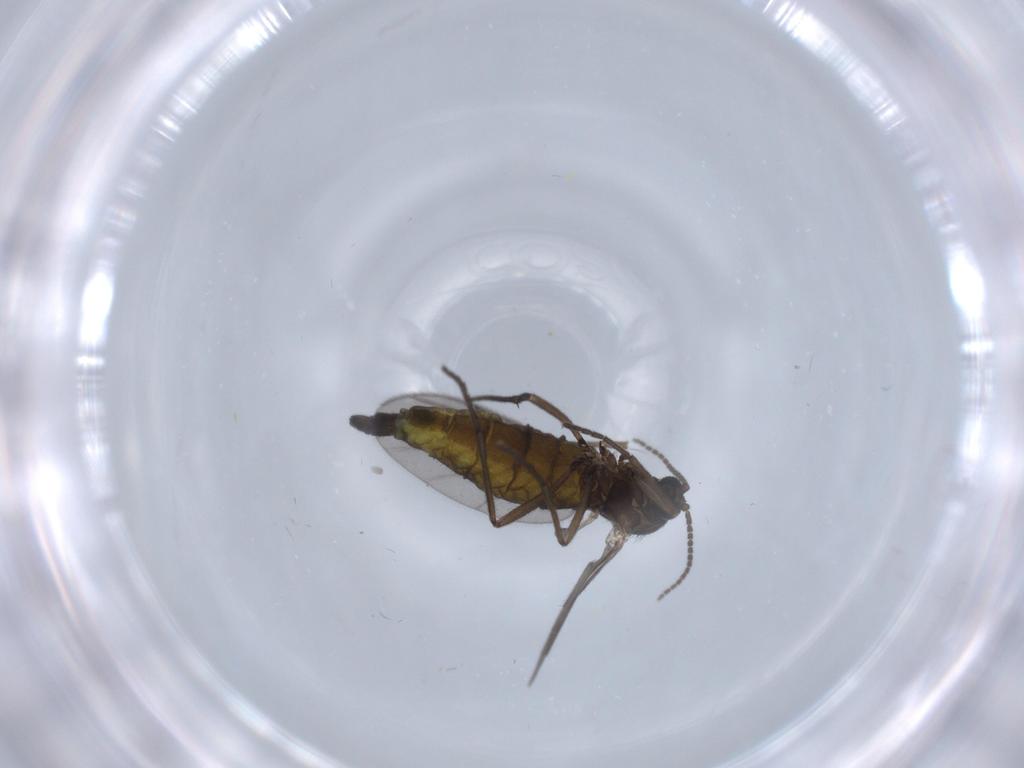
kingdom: Animalia
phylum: Arthropoda
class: Insecta
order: Diptera
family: Sciaridae
